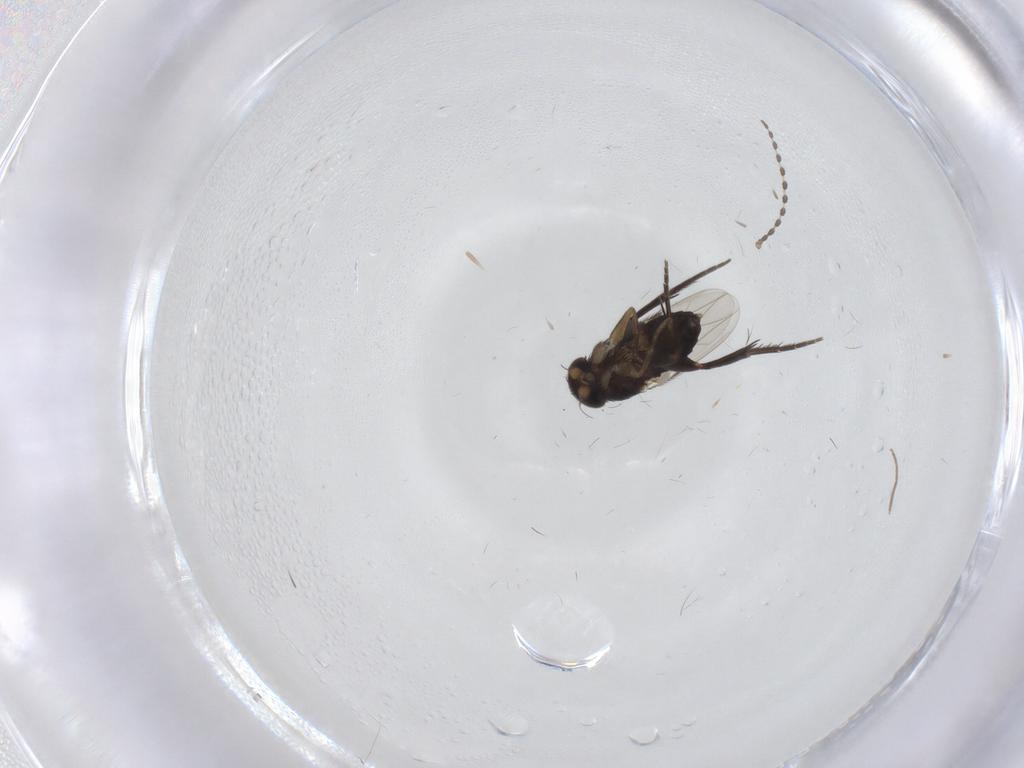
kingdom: Animalia
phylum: Arthropoda
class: Insecta
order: Diptera
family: Phoridae
